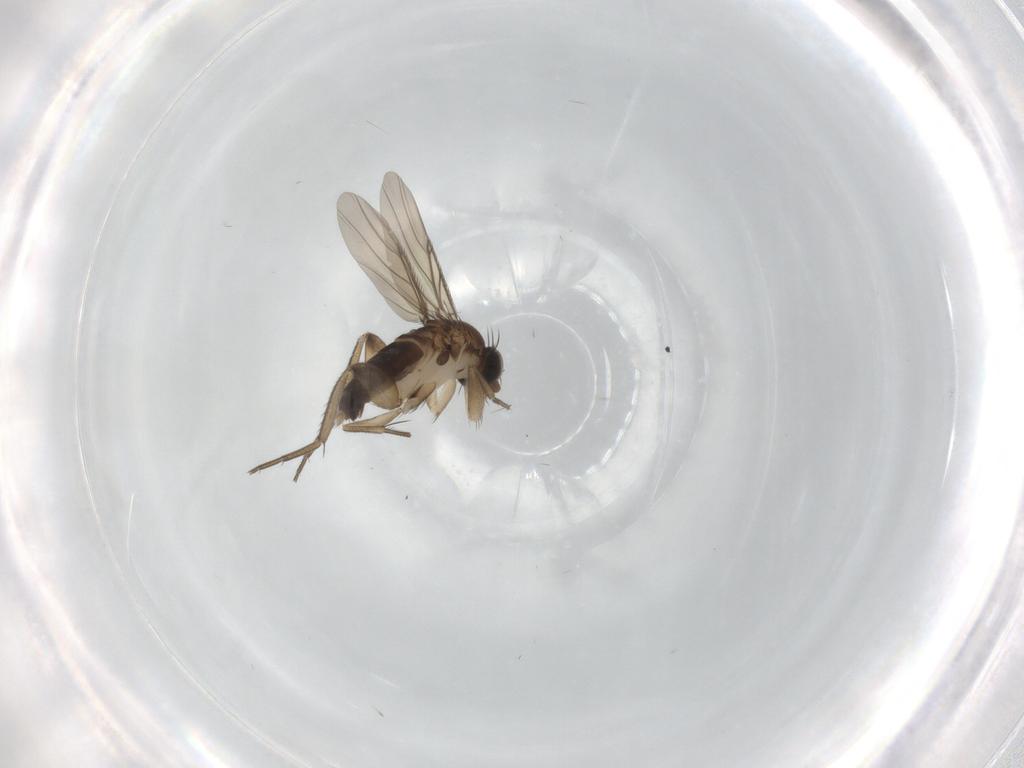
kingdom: Animalia
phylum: Arthropoda
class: Insecta
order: Diptera
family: Phoridae
